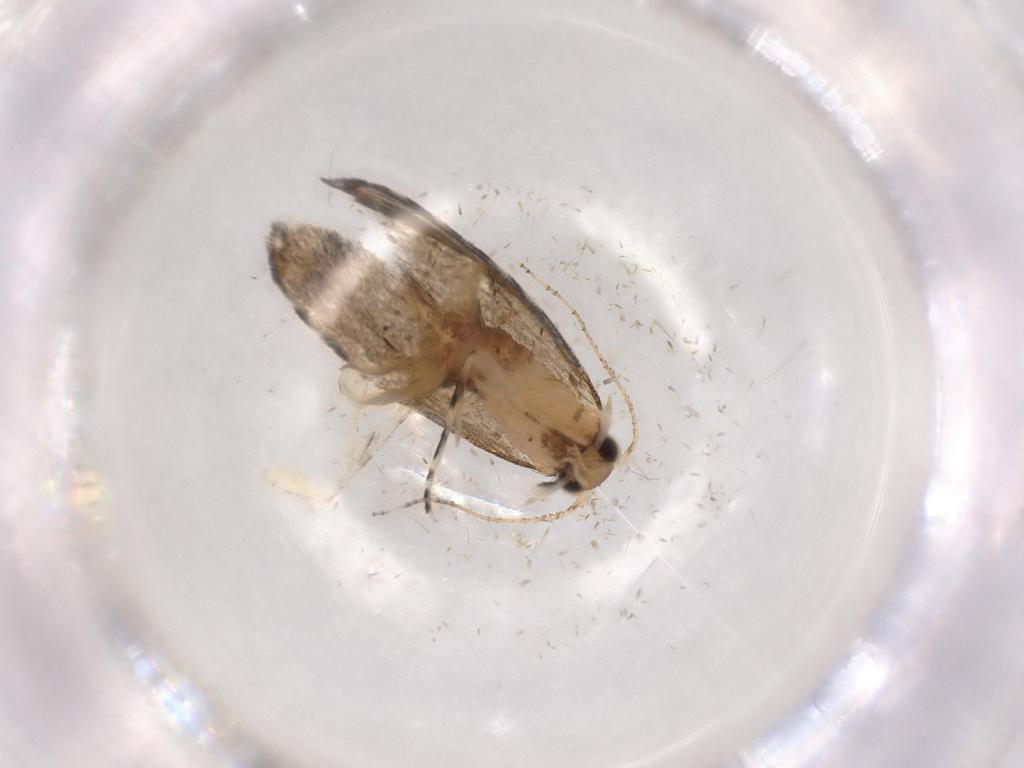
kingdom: Animalia
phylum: Arthropoda
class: Insecta
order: Lepidoptera
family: Tineidae
